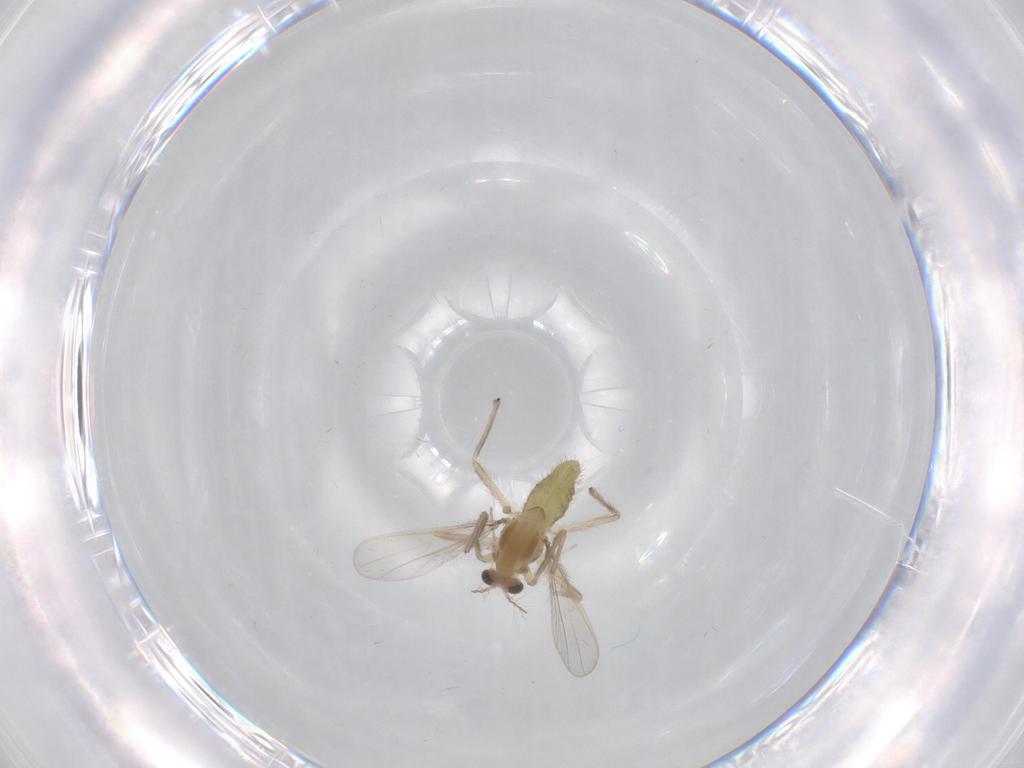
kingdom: Animalia
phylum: Arthropoda
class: Insecta
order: Diptera
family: Chironomidae
